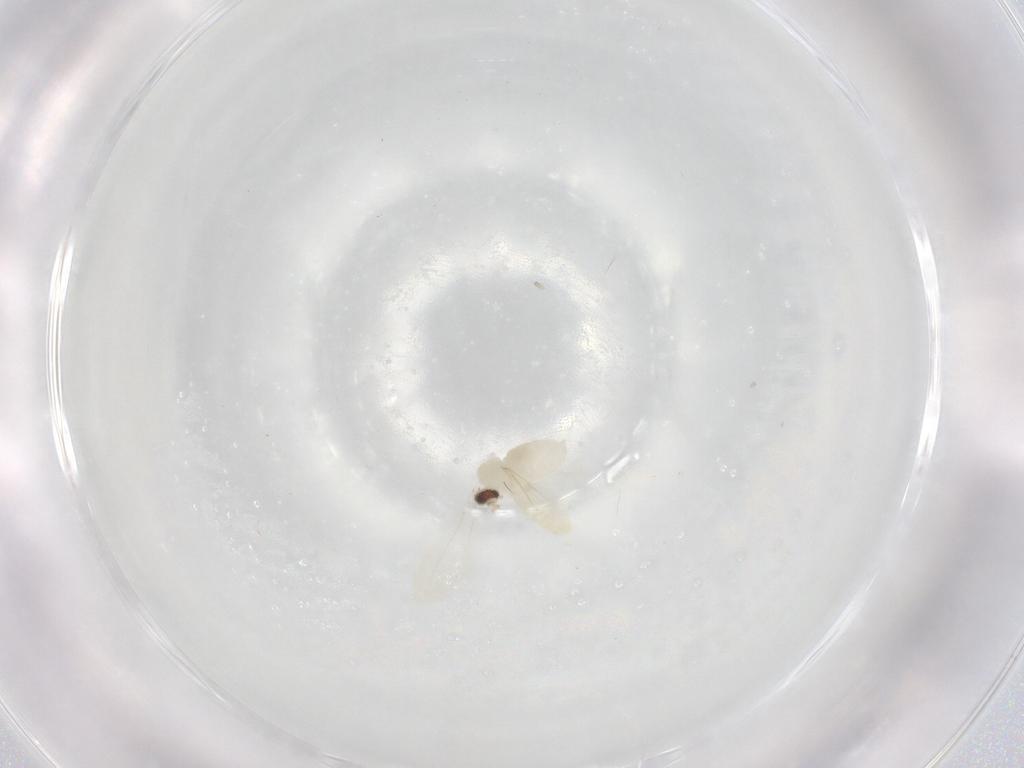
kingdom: Animalia
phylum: Arthropoda
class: Insecta
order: Diptera
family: Cecidomyiidae
